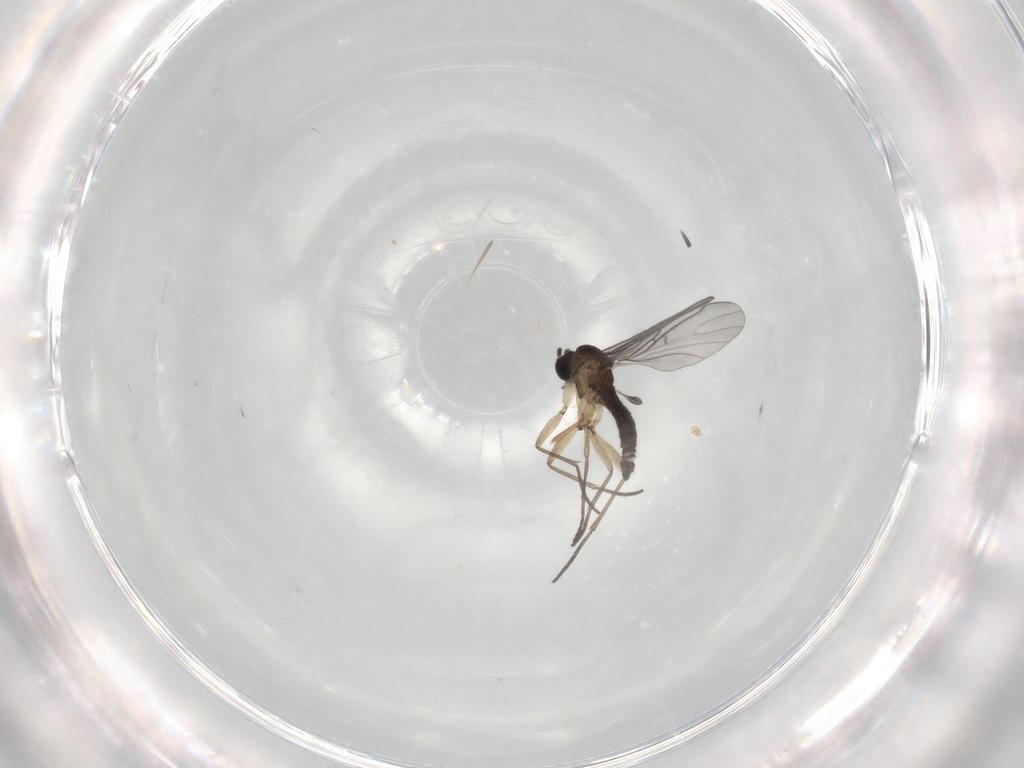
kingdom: Animalia
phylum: Arthropoda
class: Insecta
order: Diptera
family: Sciaridae
